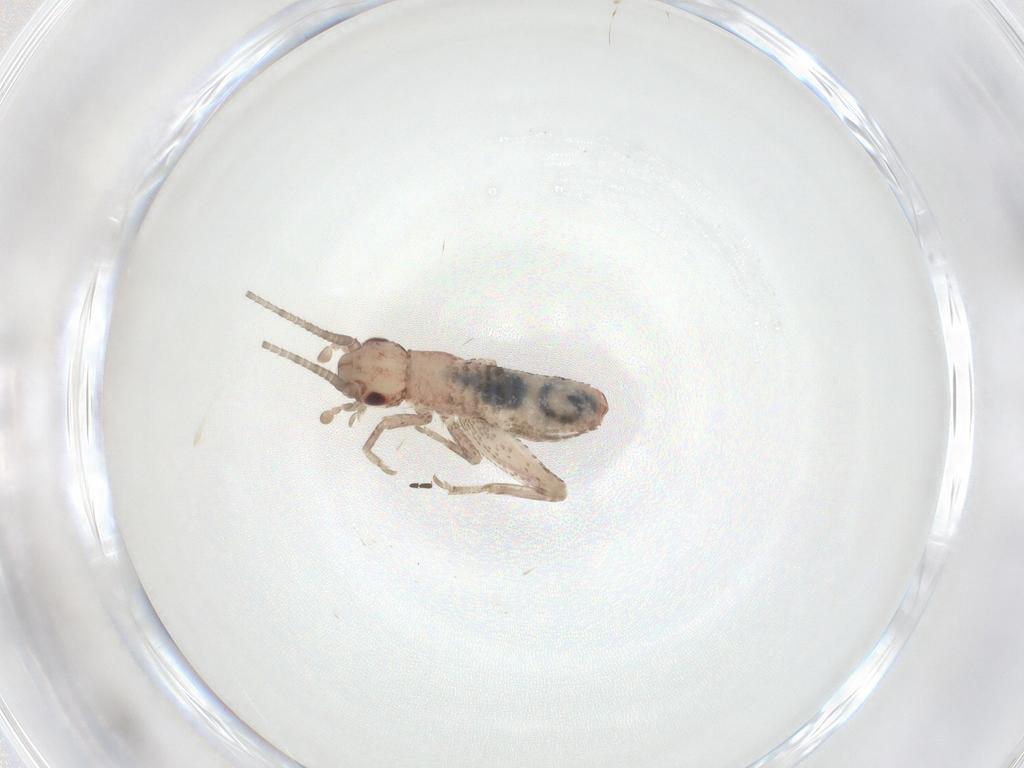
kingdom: Animalia
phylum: Arthropoda
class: Insecta
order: Orthoptera
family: Mogoplistidae
